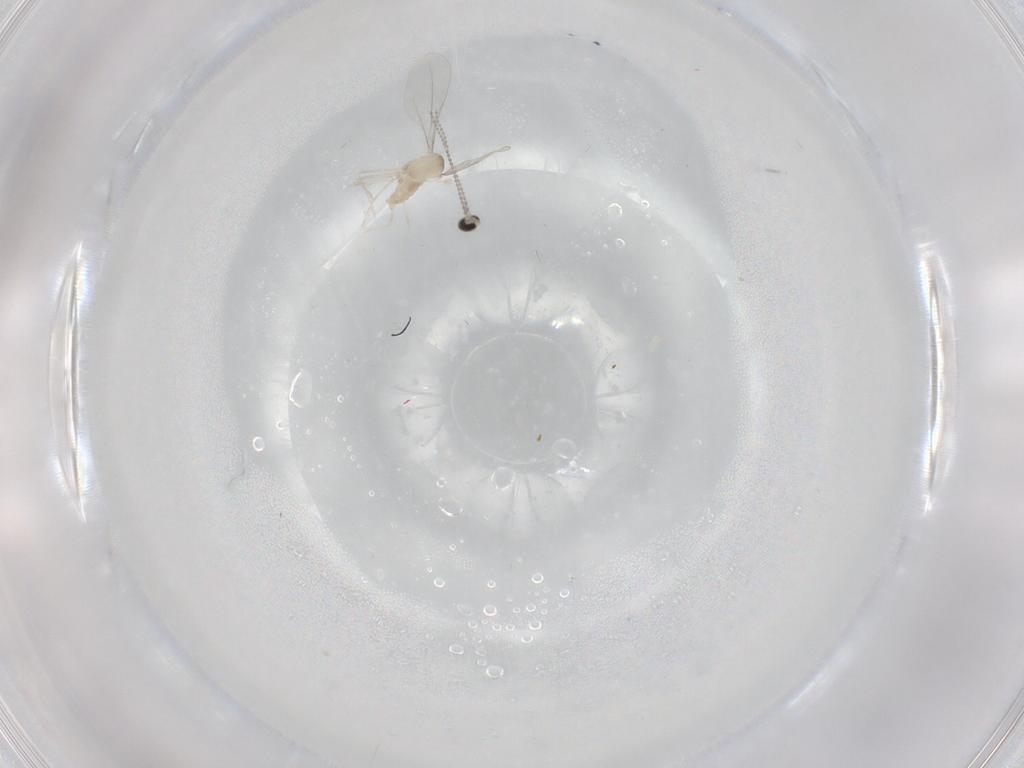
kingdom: Animalia
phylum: Arthropoda
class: Insecta
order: Diptera
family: Cecidomyiidae
